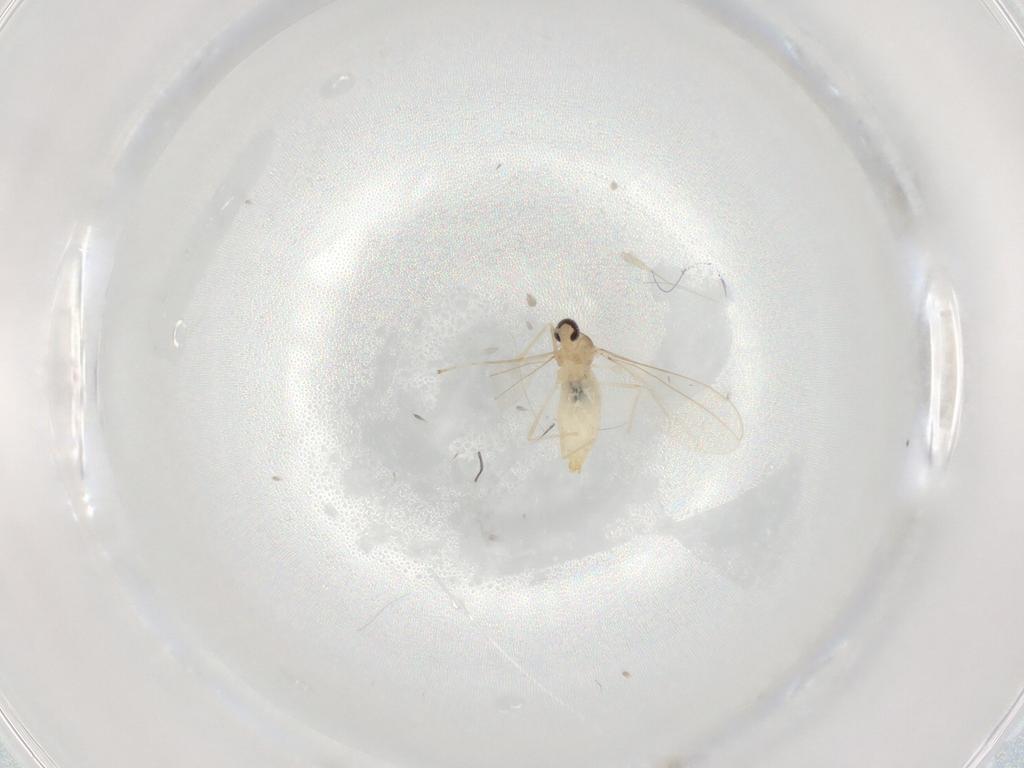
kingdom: Animalia
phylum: Arthropoda
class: Insecta
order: Diptera
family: Cecidomyiidae
